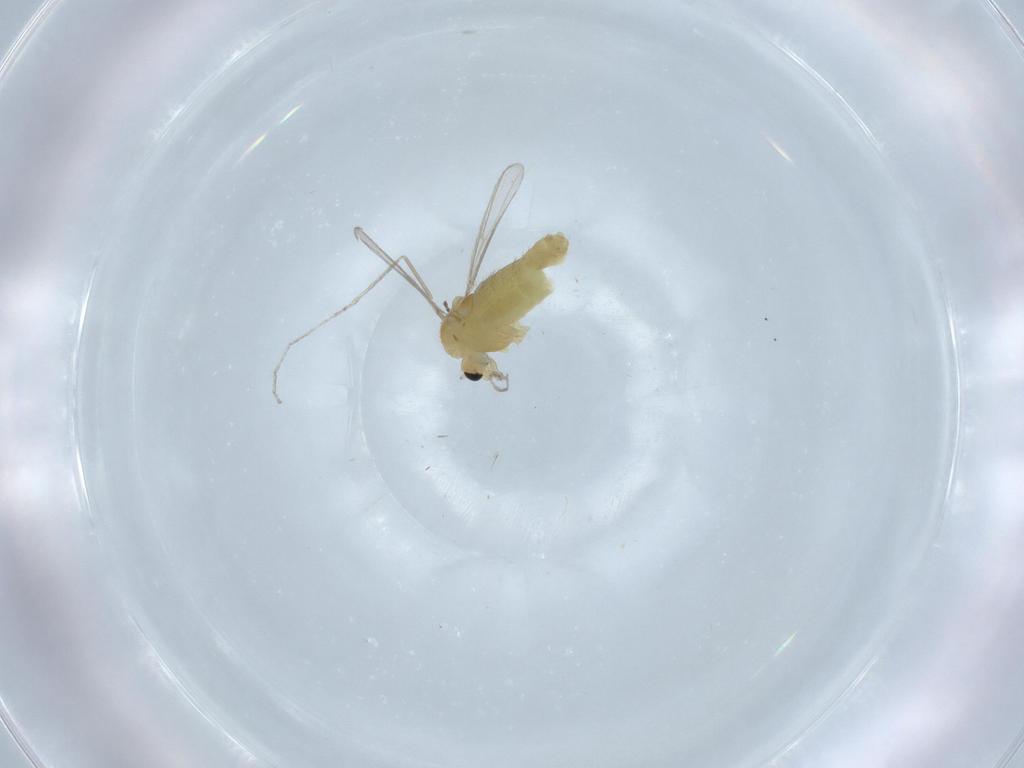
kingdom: Animalia
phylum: Arthropoda
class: Insecta
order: Diptera
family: Chironomidae
